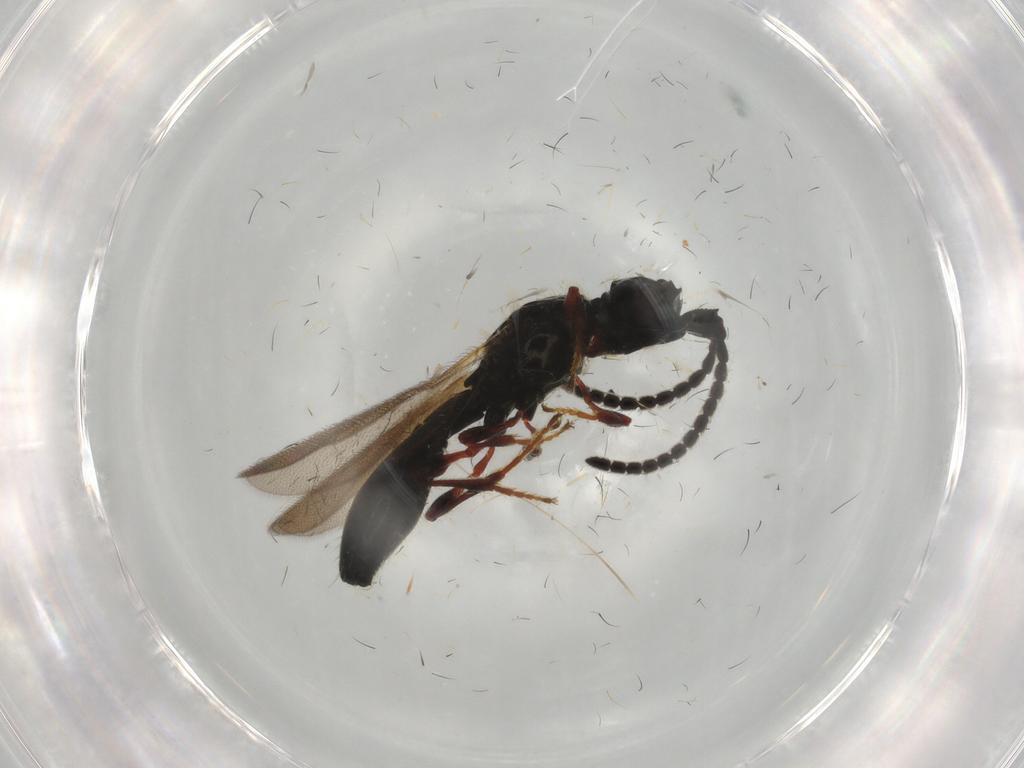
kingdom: Animalia
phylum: Arthropoda
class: Insecta
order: Hymenoptera
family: Diapriidae
